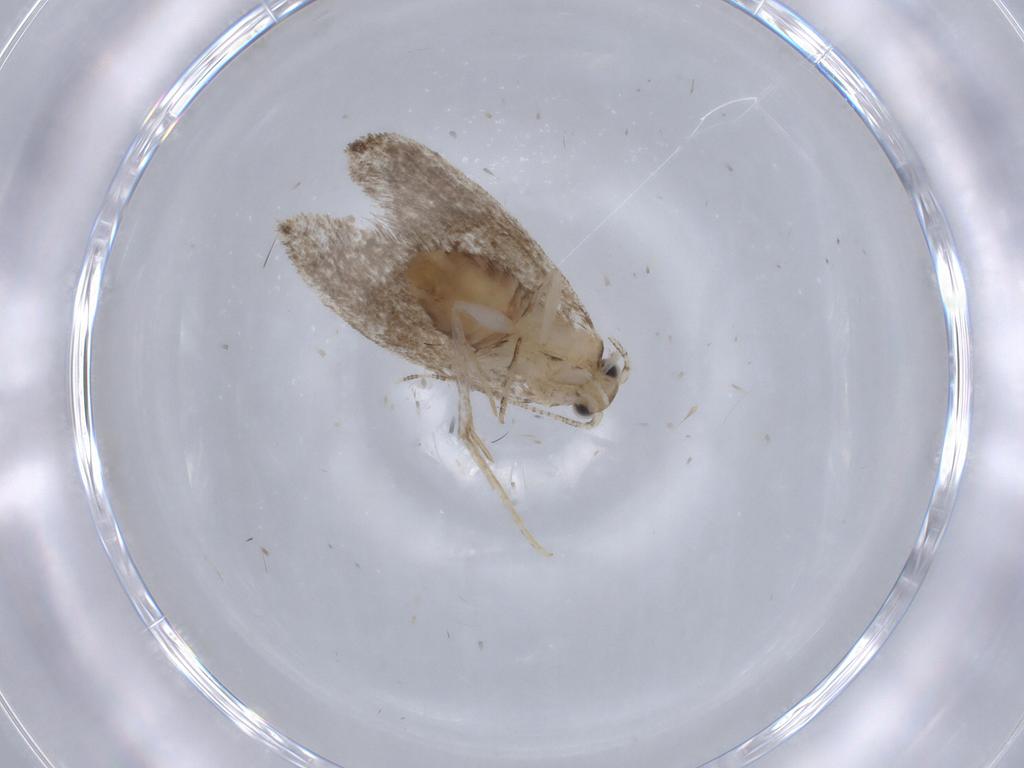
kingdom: Animalia
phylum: Arthropoda
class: Insecta
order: Lepidoptera
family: Tineidae
